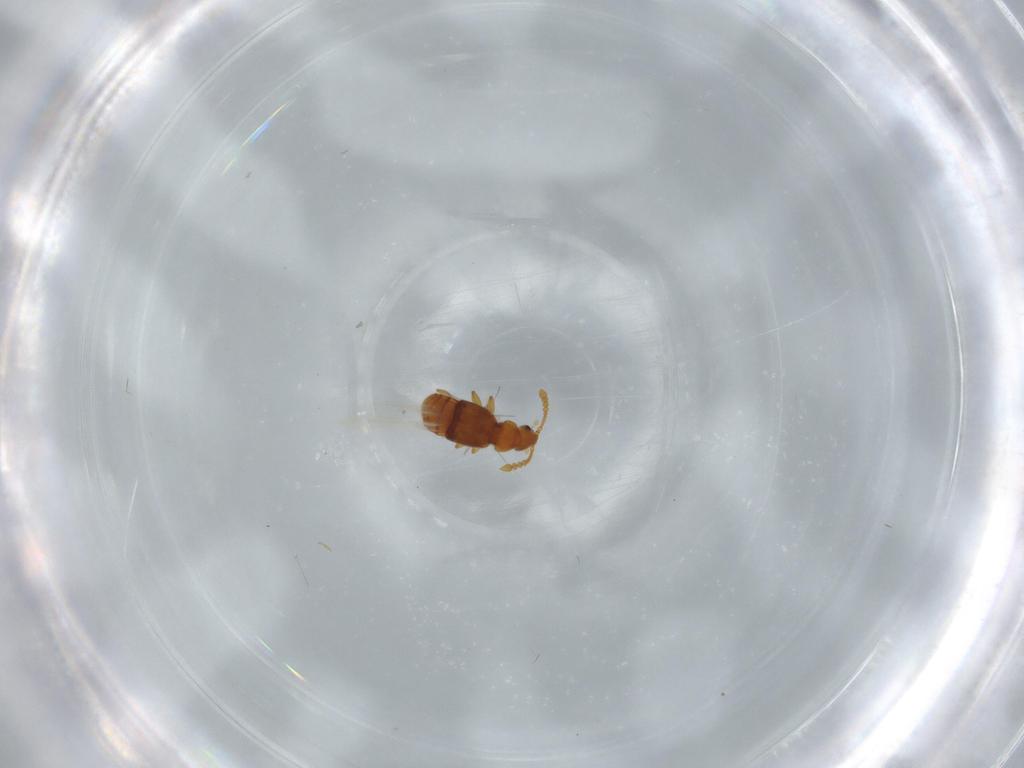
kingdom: Animalia
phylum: Arthropoda
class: Insecta
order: Coleoptera
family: Staphylinidae
